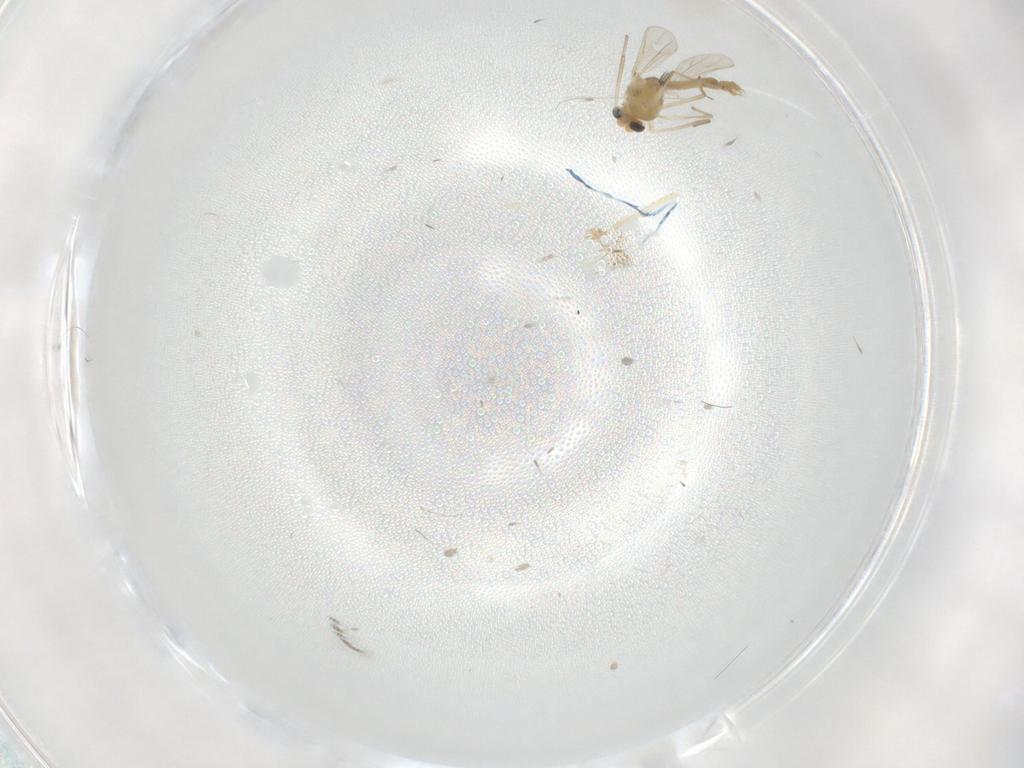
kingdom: Animalia
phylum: Arthropoda
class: Insecta
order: Diptera
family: Chironomidae
